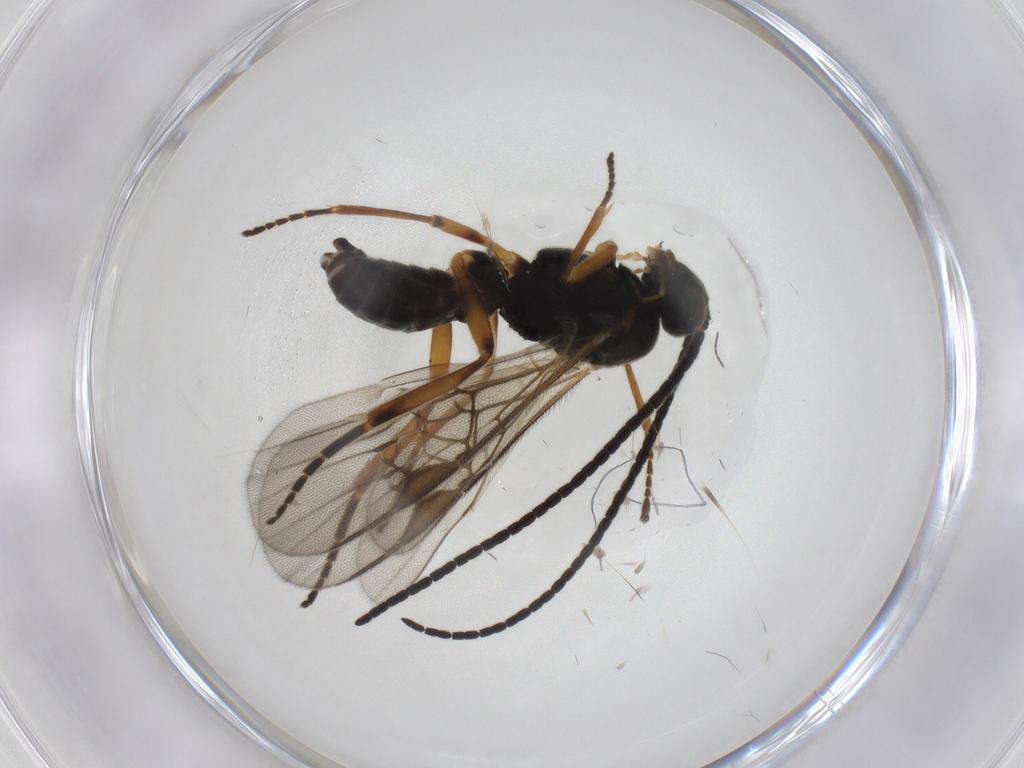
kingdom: Animalia
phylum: Arthropoda
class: Insecta
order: Hymenoptera
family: Braconidae
